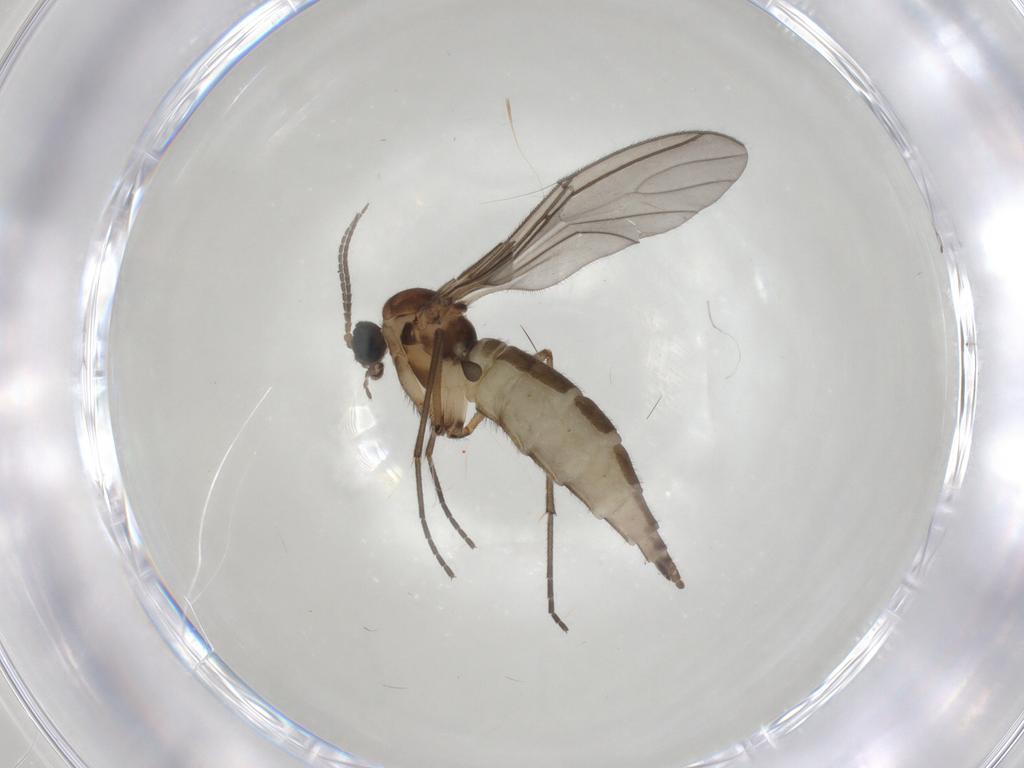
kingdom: Animalia
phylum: Arthropoda
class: Insecta
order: Diptera
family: Sciaridae
